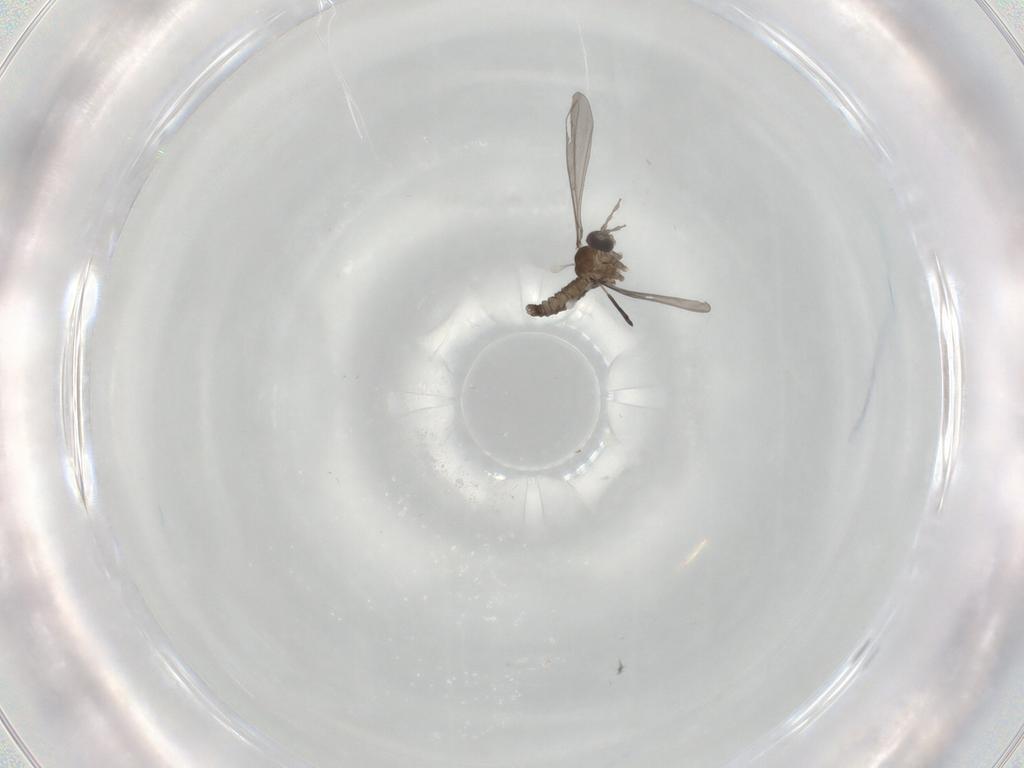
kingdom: Animalia
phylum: Arthropoda
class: Insecta
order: Diptera
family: Cecidomyiidae
